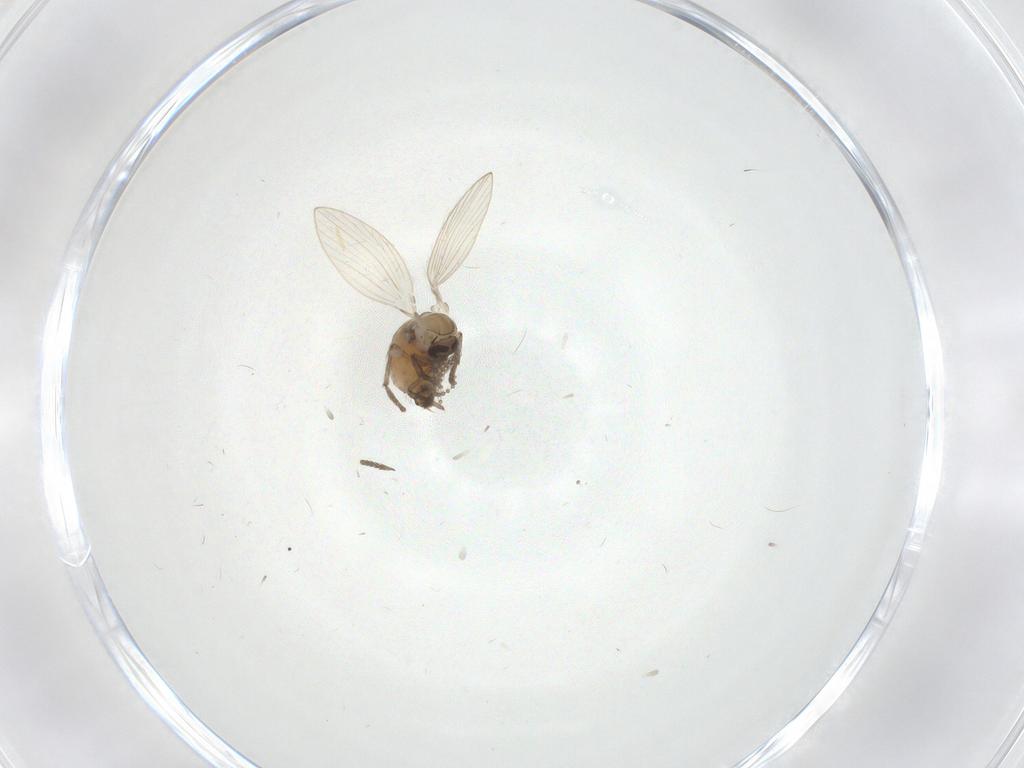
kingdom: Animalia
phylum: Arthropoda
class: Insecta
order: Diptera
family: Psychodidae
